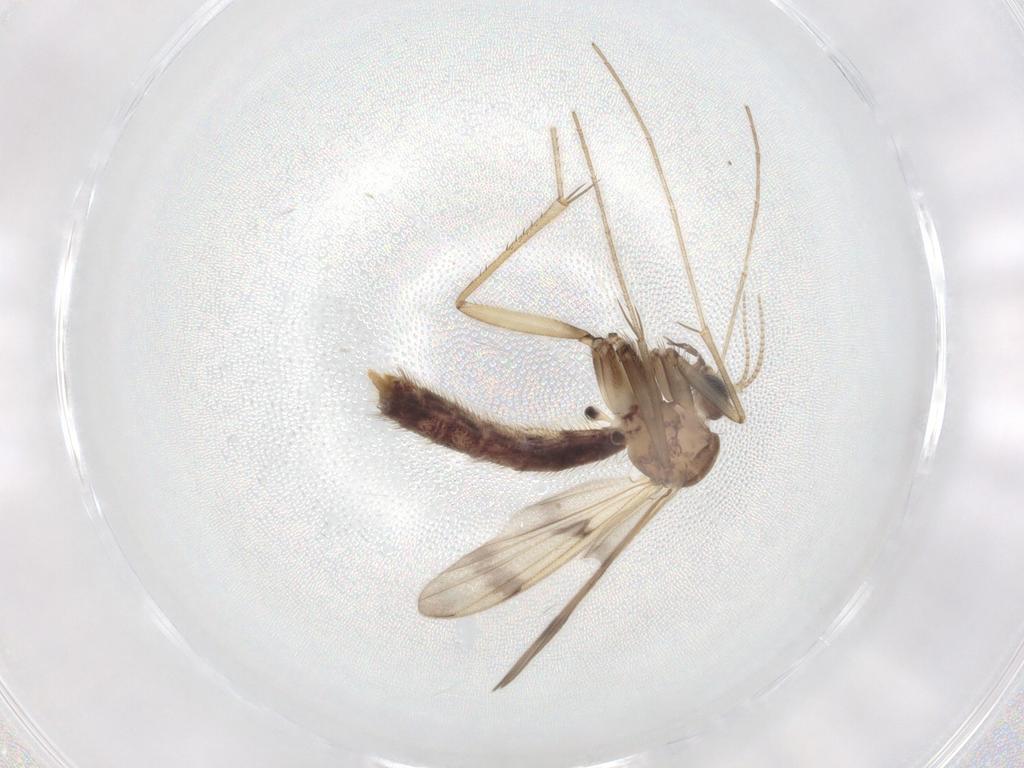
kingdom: Animalia
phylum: Arthropoda
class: Insecta
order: Diptera
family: Mycetophilidae
